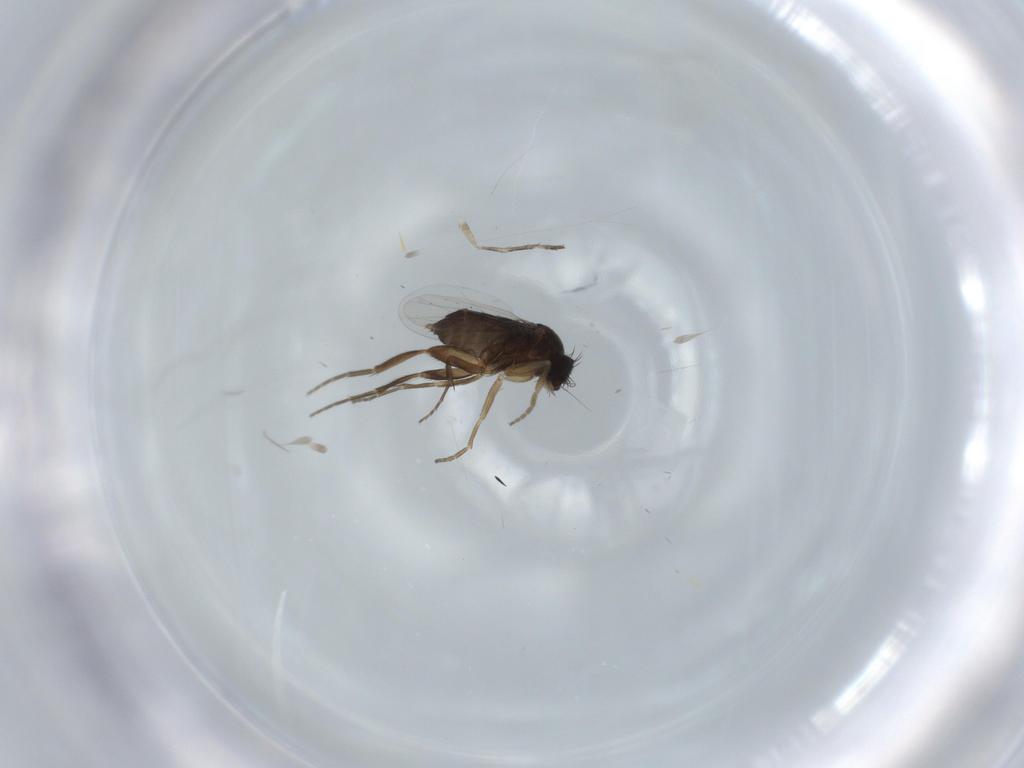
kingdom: Animalia
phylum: Arthropoda
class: Insecta
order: Diptera
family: Phoridae
